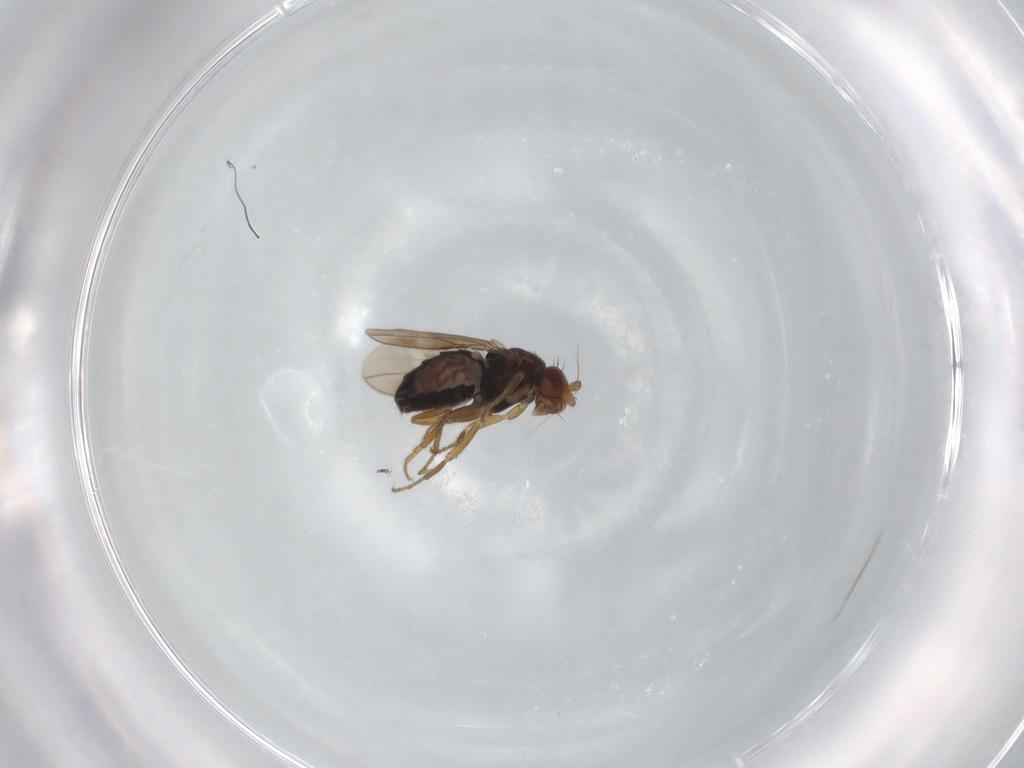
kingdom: Animalia
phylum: Arthropoda
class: Insecta
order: Diptera
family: Sphaeroceridae
